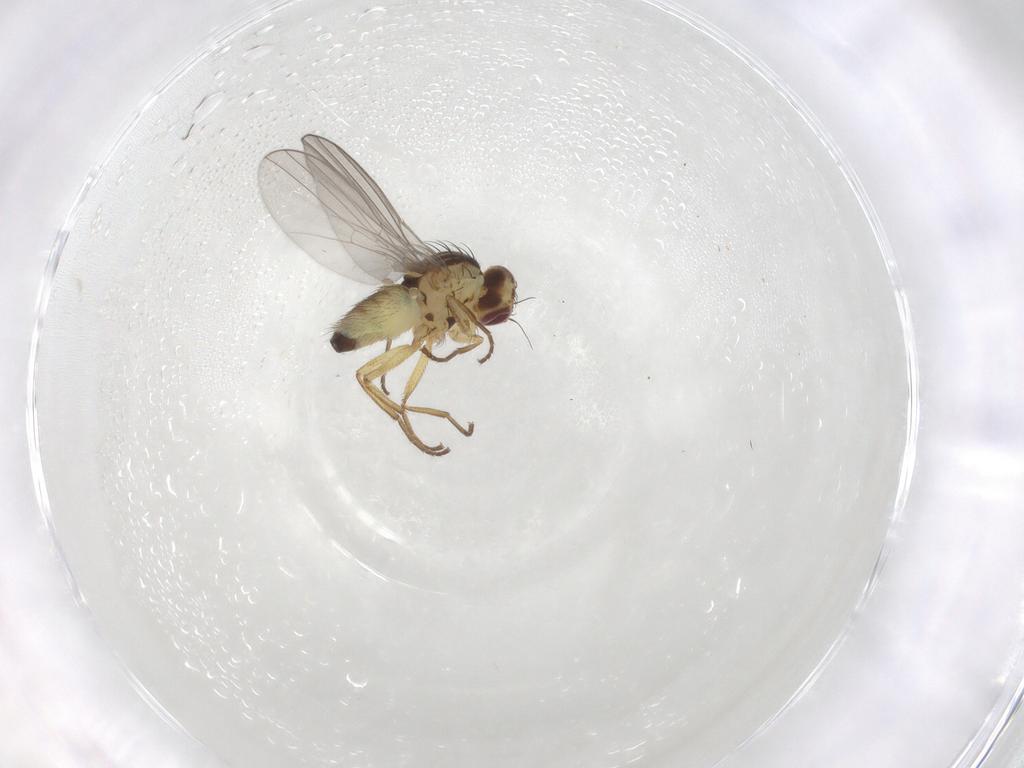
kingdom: Animalia
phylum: Arthropoda
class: Insecta
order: Diptera
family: Agromyzidae
